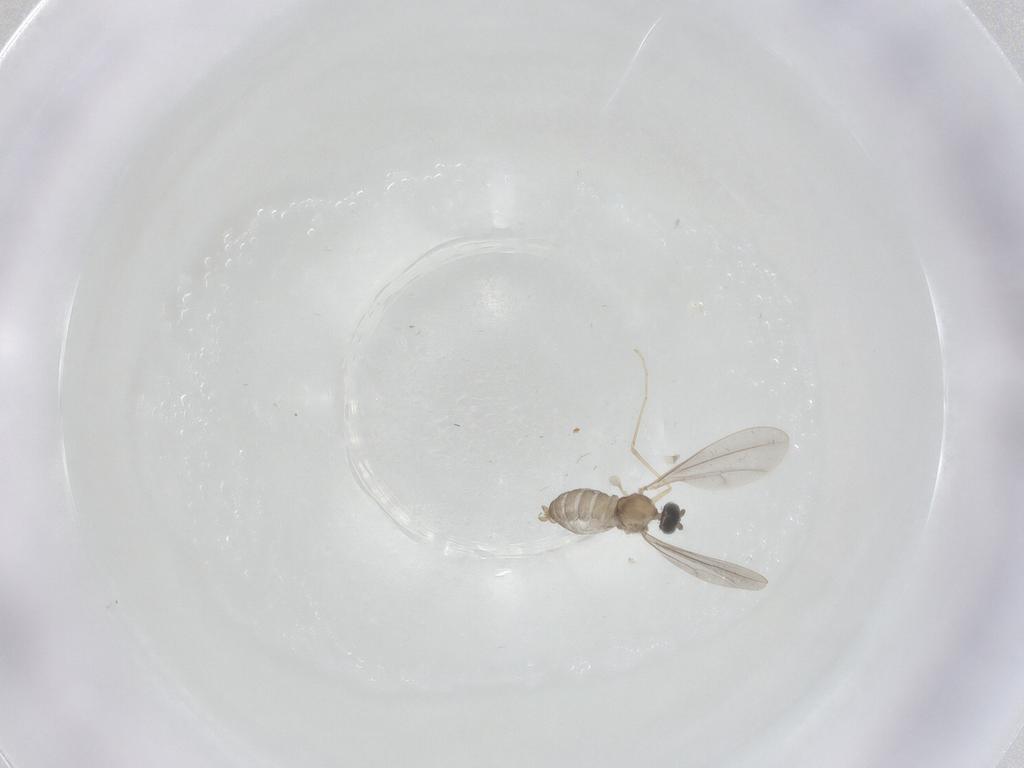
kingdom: Animalia
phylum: Arthropoda
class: Insecta
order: Diptera
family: Cecidomyiidae
